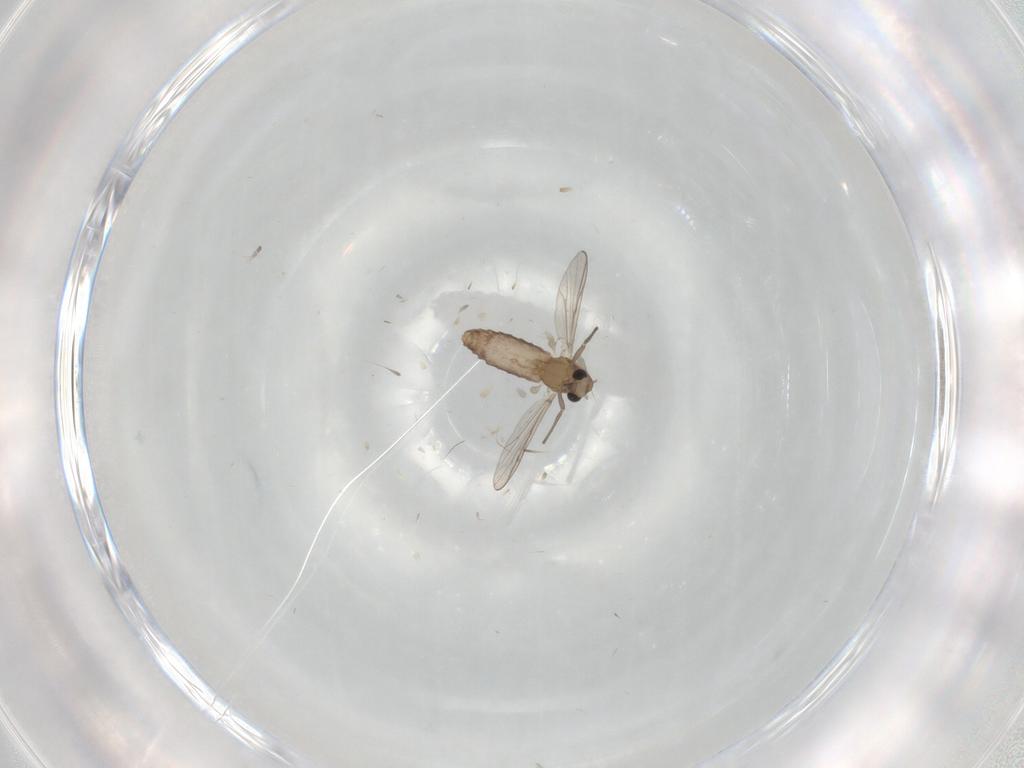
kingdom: Animalia
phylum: Arthropoda
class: Insecta
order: Diptera
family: Chironomidae
